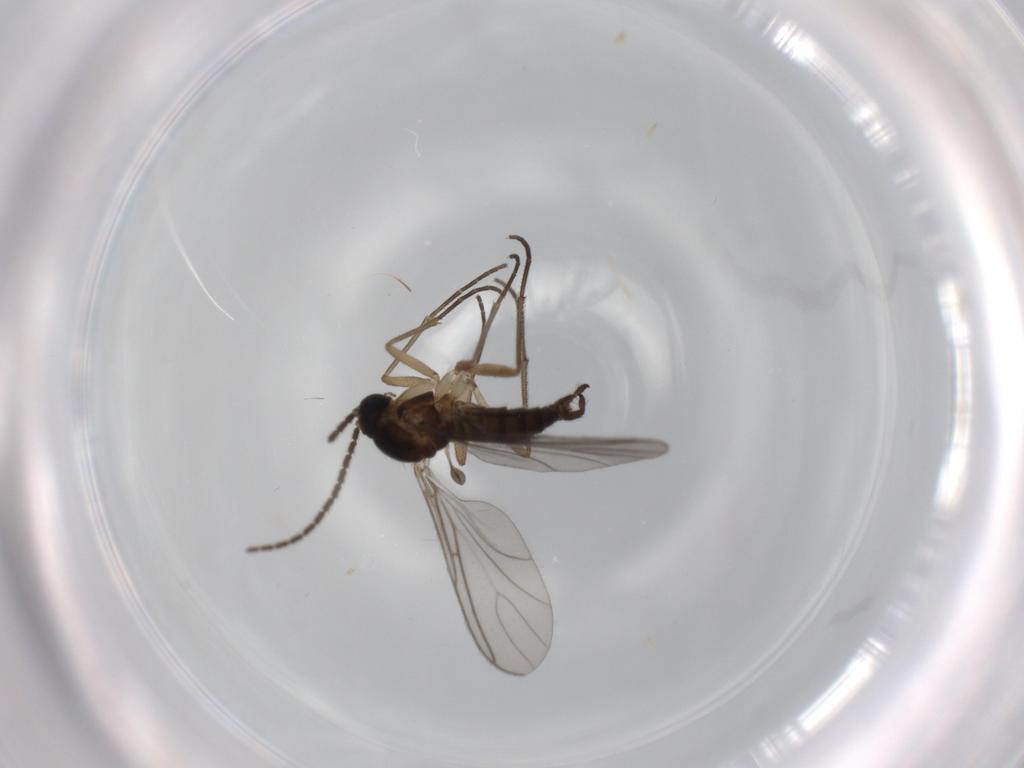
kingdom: Animalia
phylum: Arthropoda
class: Insecta
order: Diptera
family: Sciaridae
